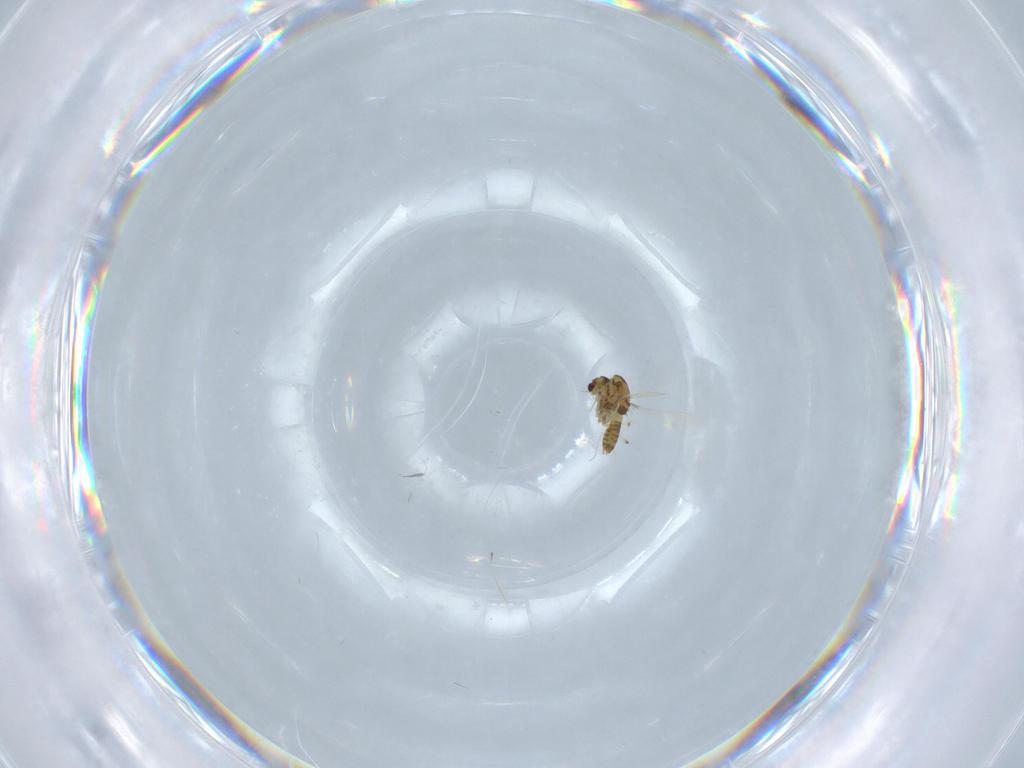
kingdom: Animalia
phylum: Arthropoda
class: Insecta
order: Diptera
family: Chironomidae
